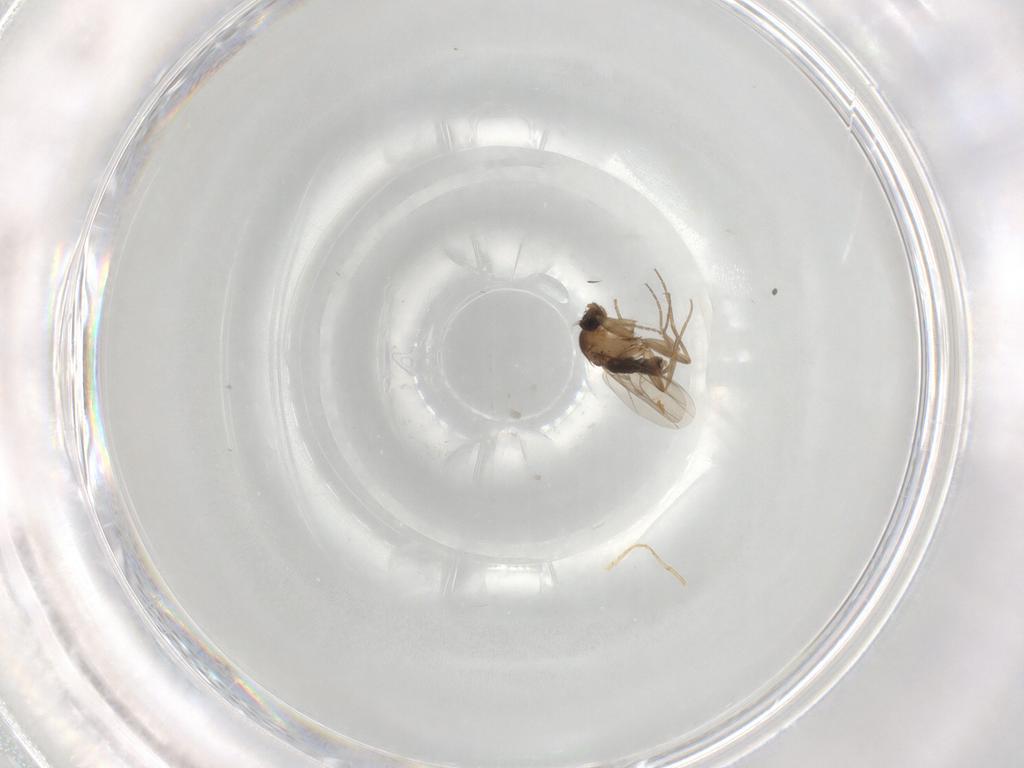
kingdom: Animalia
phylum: Arthropoda
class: Insecta
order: Diptera
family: Phoridae
